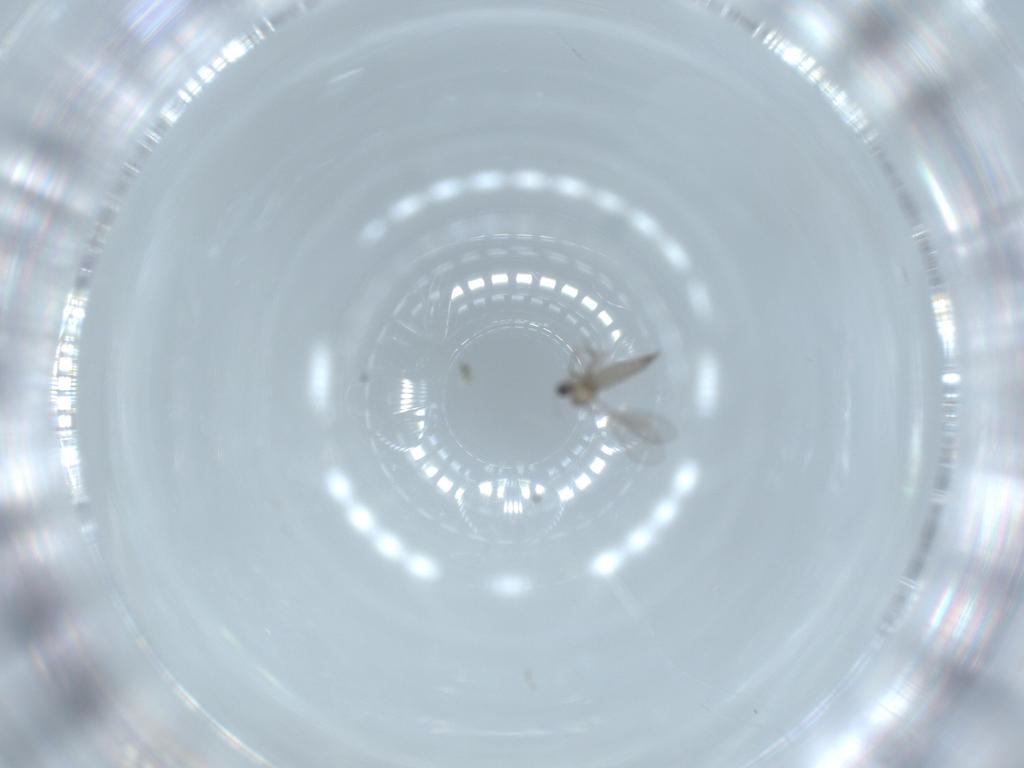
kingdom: Animalia
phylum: Arthropoda
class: Insecta
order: Diptera
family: Cecidomyiidae
